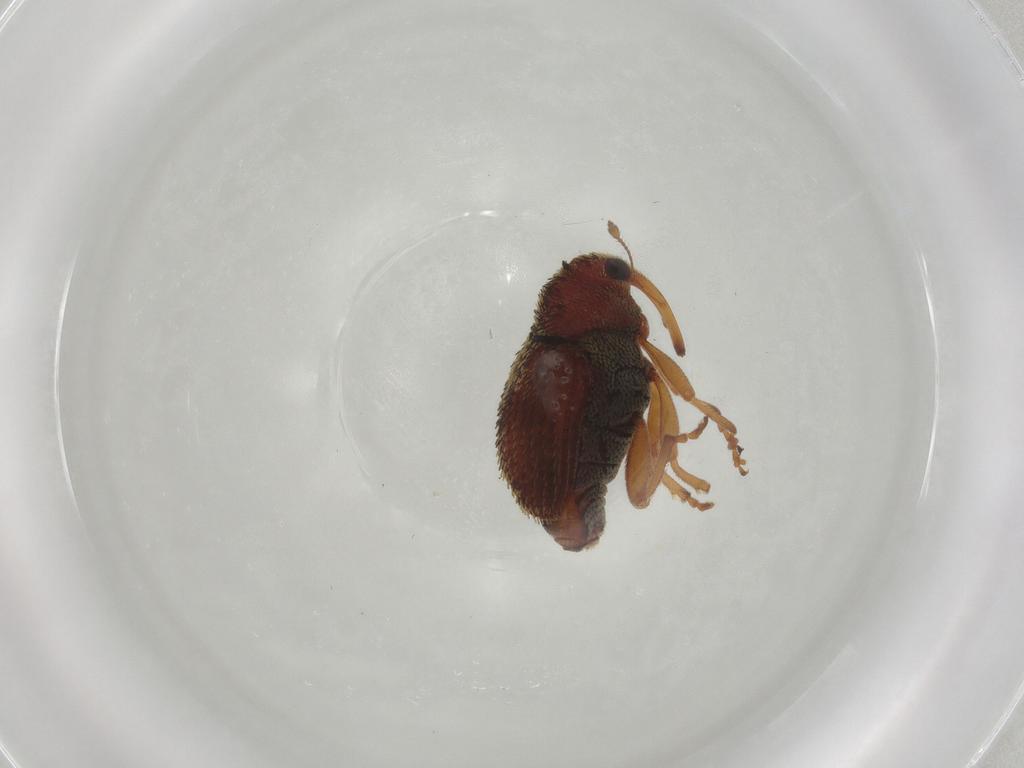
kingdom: Animalia
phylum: Arthropoda
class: Insecta
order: Coleoptera
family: Curculionidae
